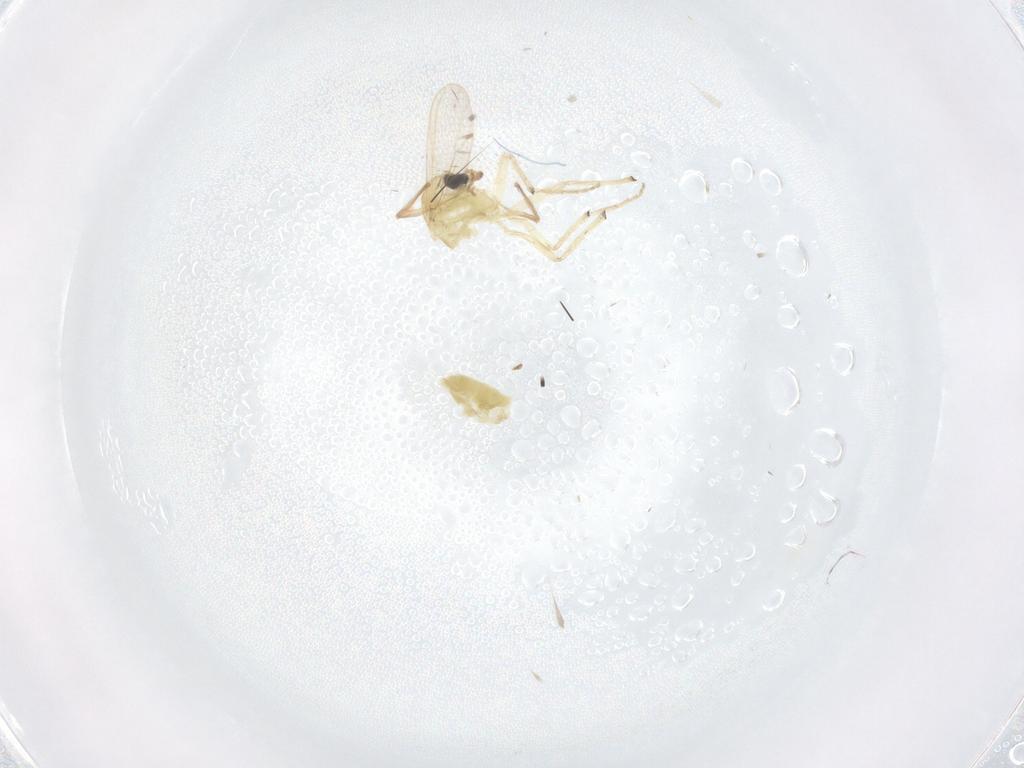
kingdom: Animalia
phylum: Arthropoda
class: Insecta
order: Diptera
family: Chironomidae
